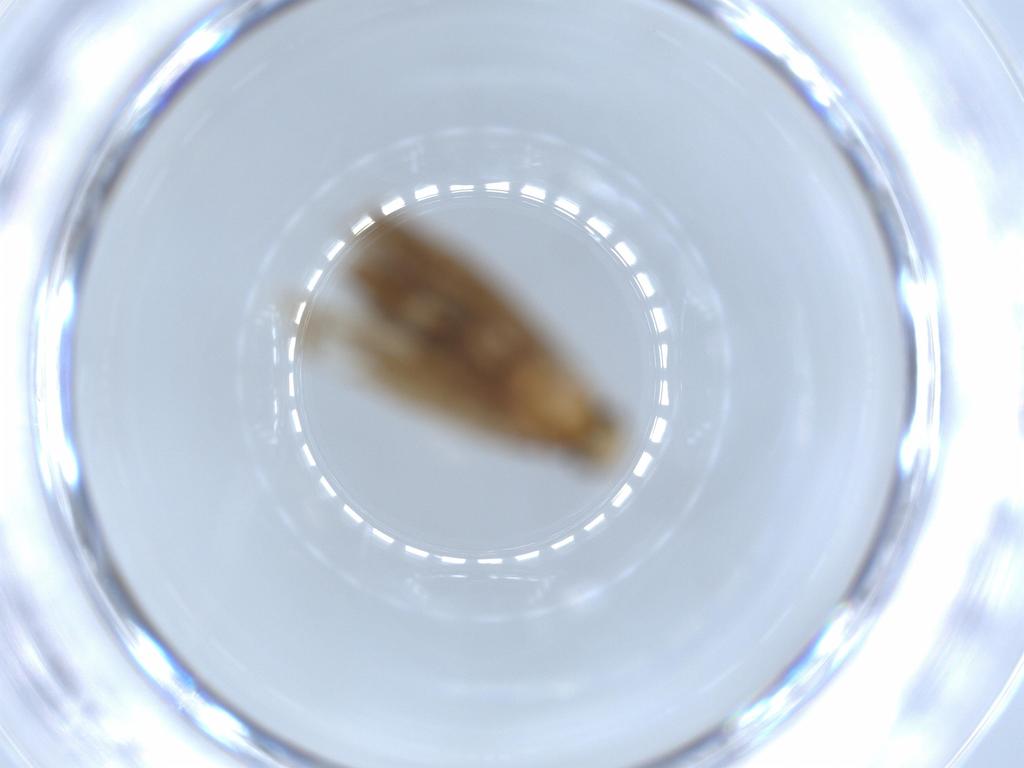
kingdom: Animalia
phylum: Arthropoda
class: Insecta
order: Lepidoptera
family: Tineidae
